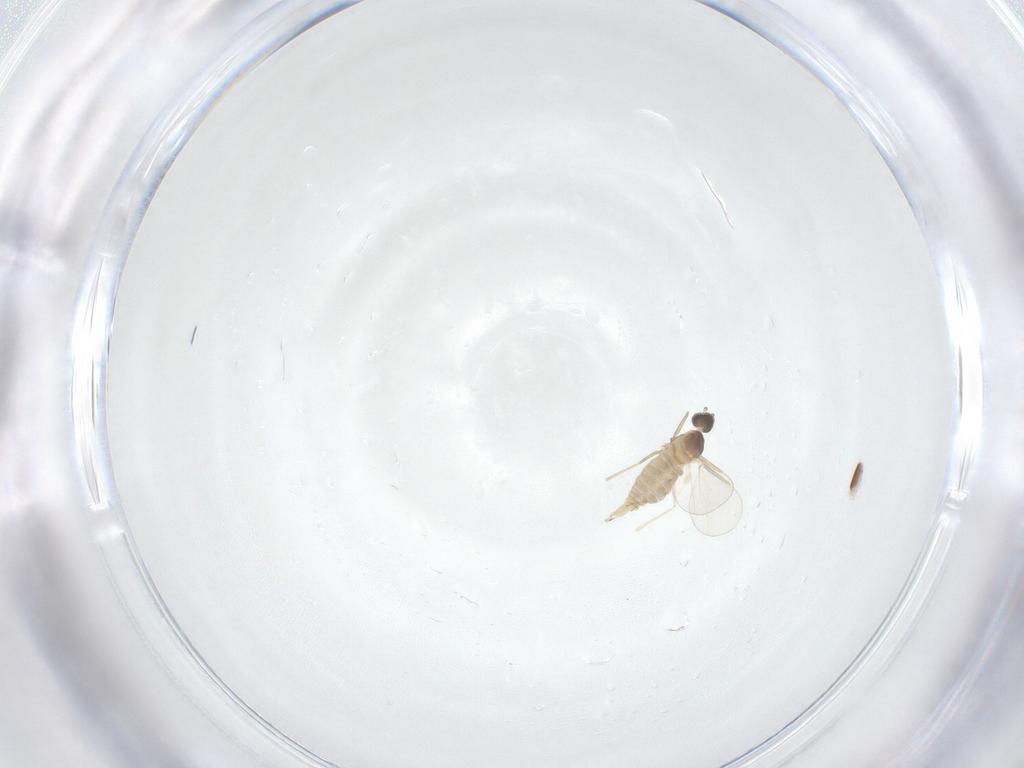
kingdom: Animalia
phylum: Arthropoda
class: Insecta
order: Diptera
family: Cecidomyiidae
